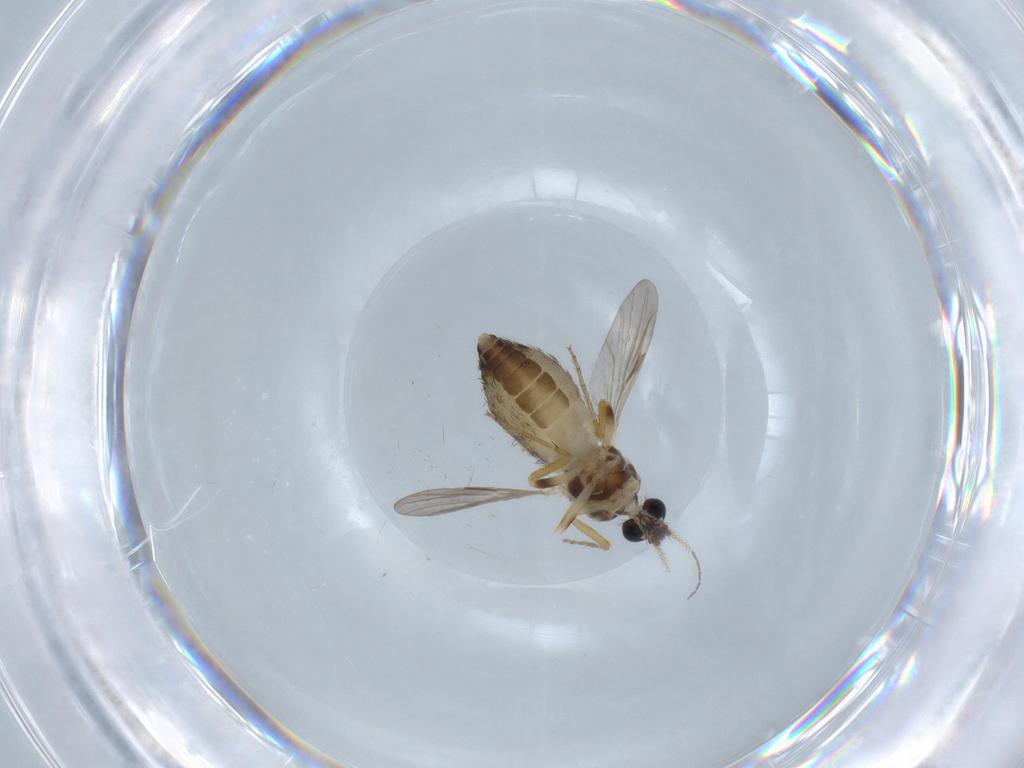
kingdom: Animalia
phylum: Arthropoda
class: Insecta
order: Diptera
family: Ceratopogonidae
